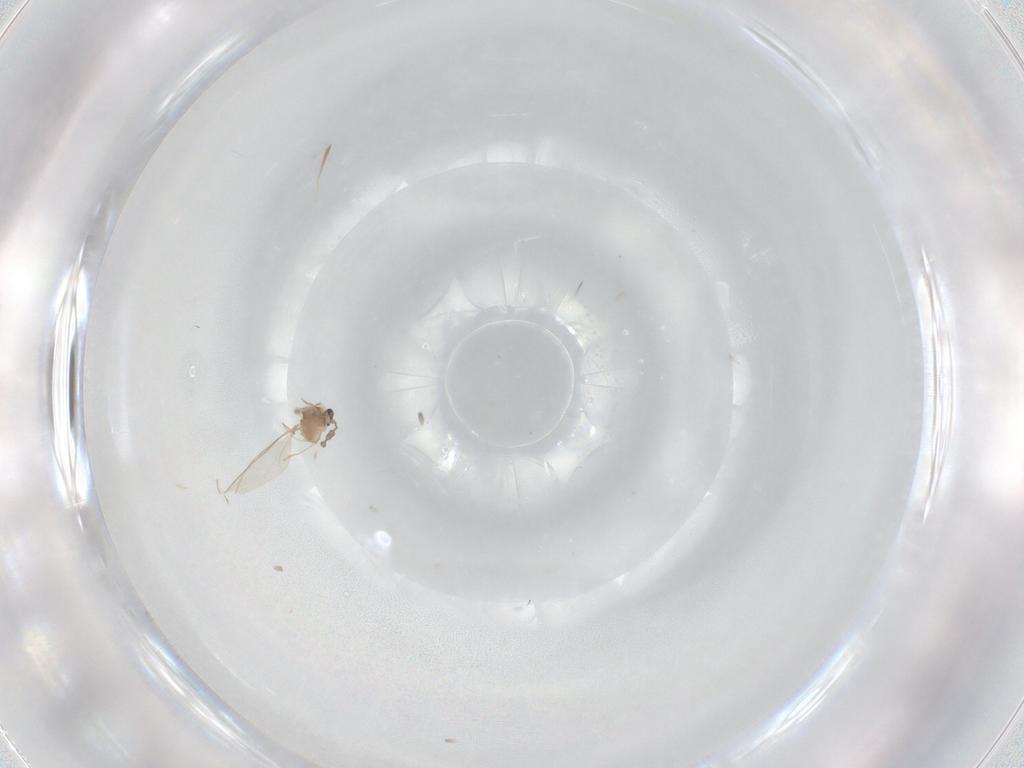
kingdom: Animalia
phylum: Arthropoda
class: Insecta
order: Diptera
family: Cecidomyiidae
